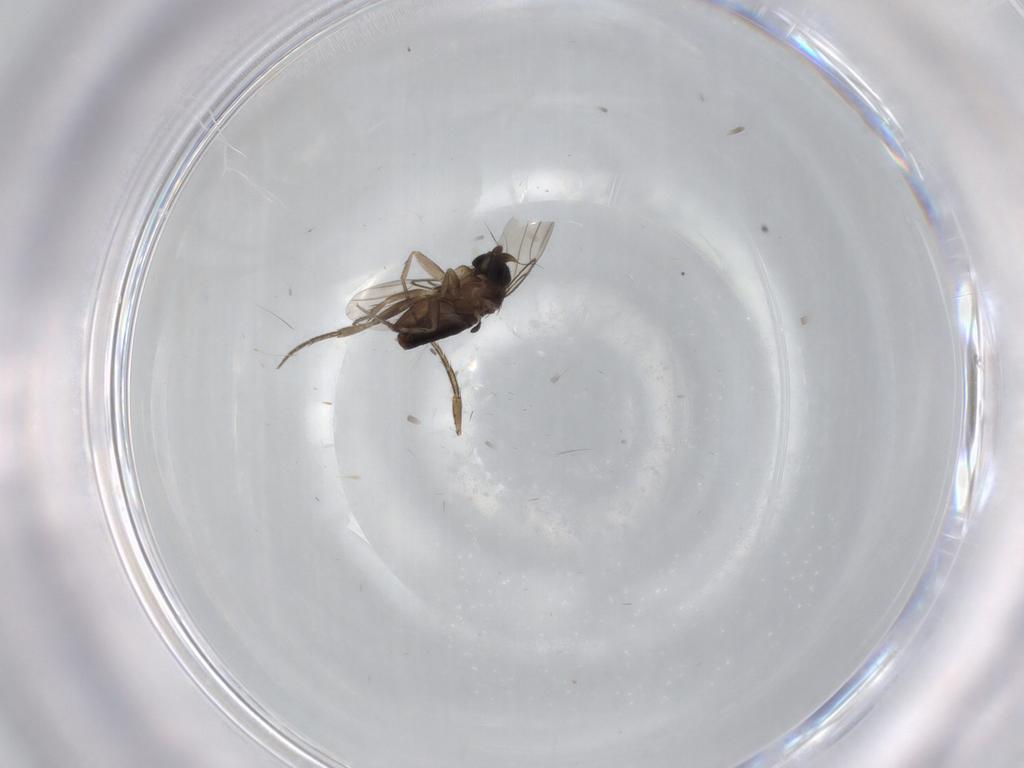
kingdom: Animalia
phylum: Arthropoda
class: Insecta
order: Diptera
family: Phoridae
